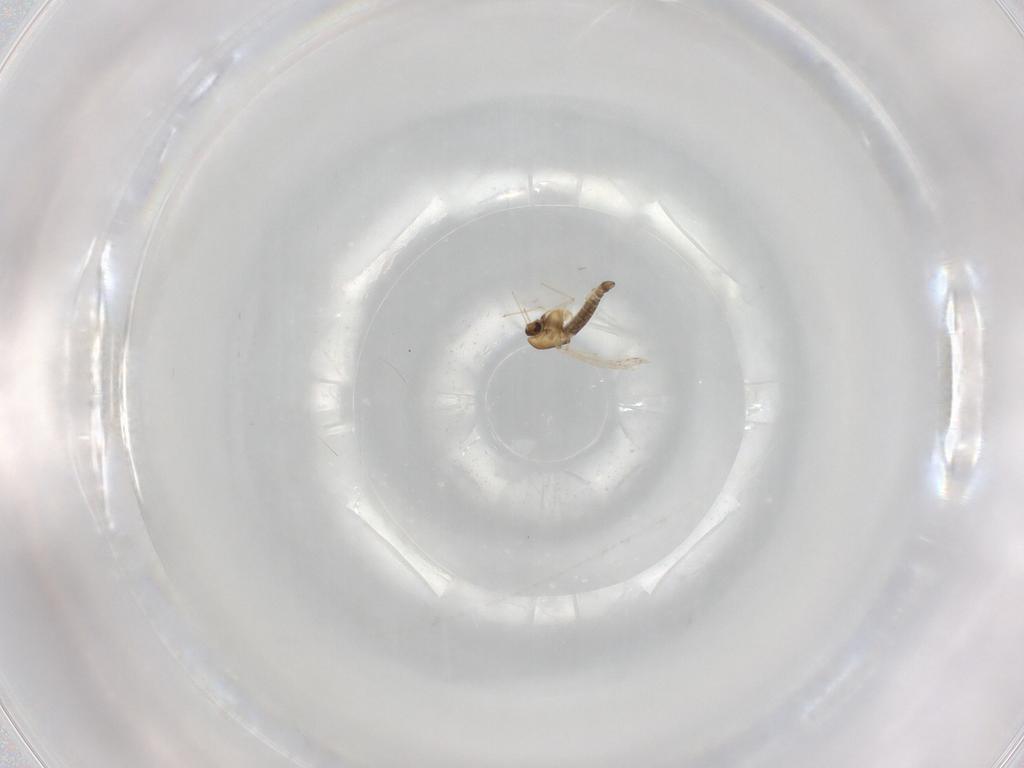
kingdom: Animalia
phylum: Arthropoda
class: Insecta
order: Diptera
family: Chironomidae
